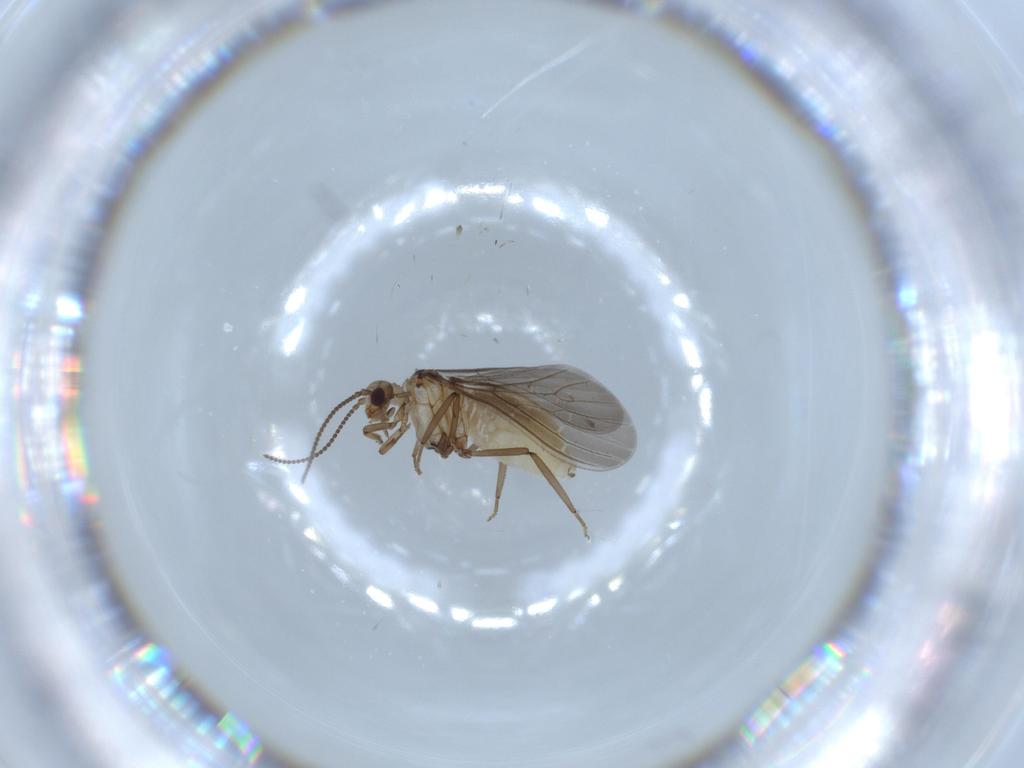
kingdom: Animalia
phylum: Arthropoda
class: Insecta
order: Neuroptera
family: Coniopterygidae
